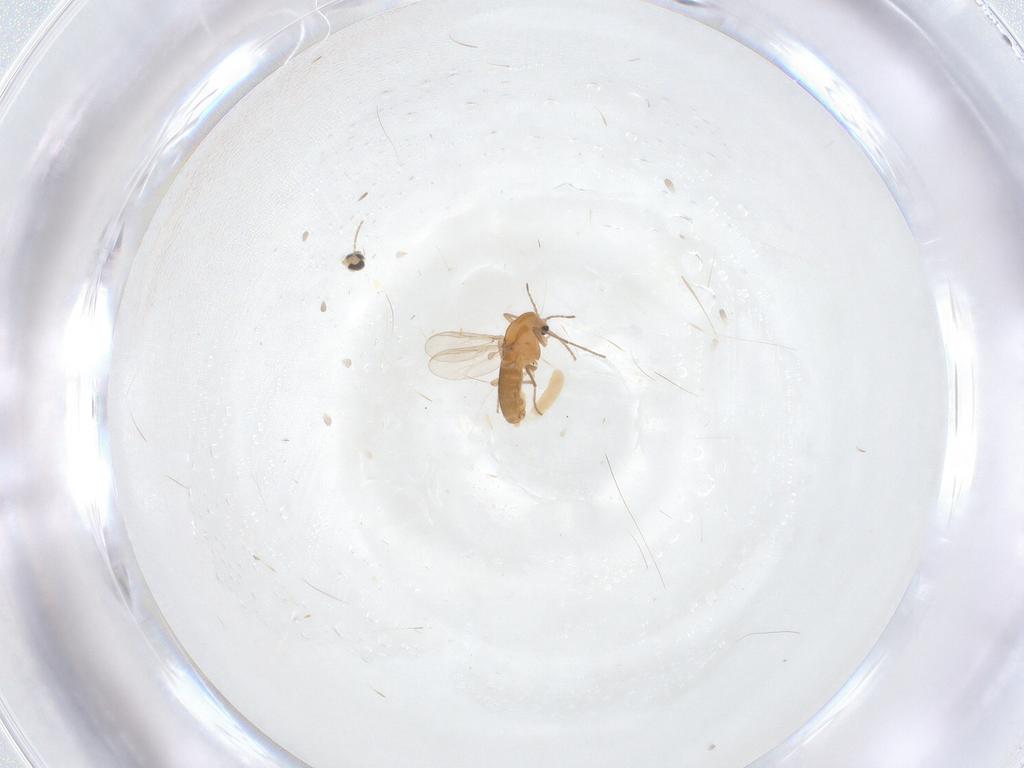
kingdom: Animalia
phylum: Arthropoda
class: Insecta
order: Diptera
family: Cecidomyiidae
